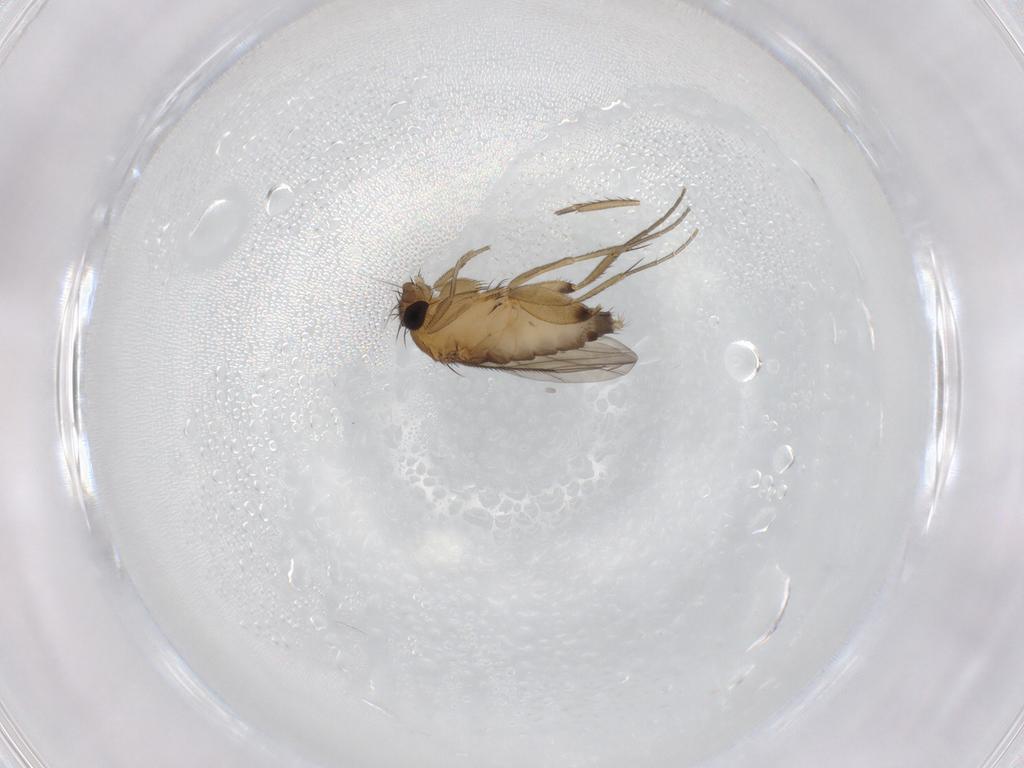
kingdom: Animalia
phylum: Arthropoda
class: Insecta
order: Diptera
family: Phoridae
